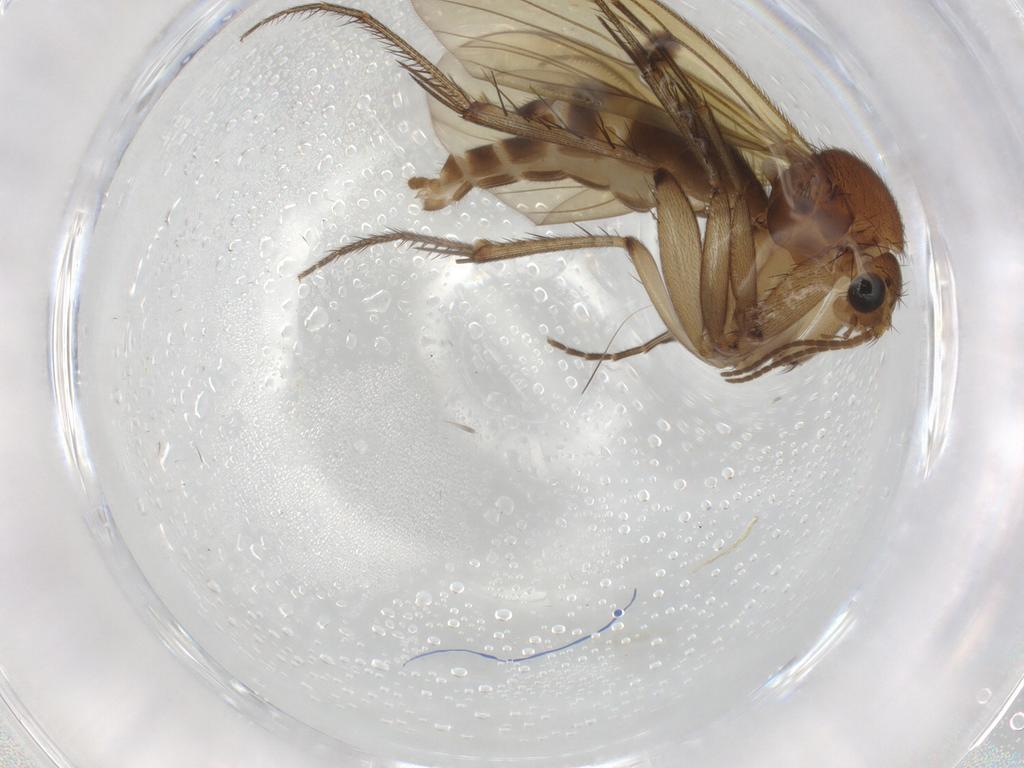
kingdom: Animalia
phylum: Arthropoda
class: Insecta
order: Diptera
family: Mycetophilidae
